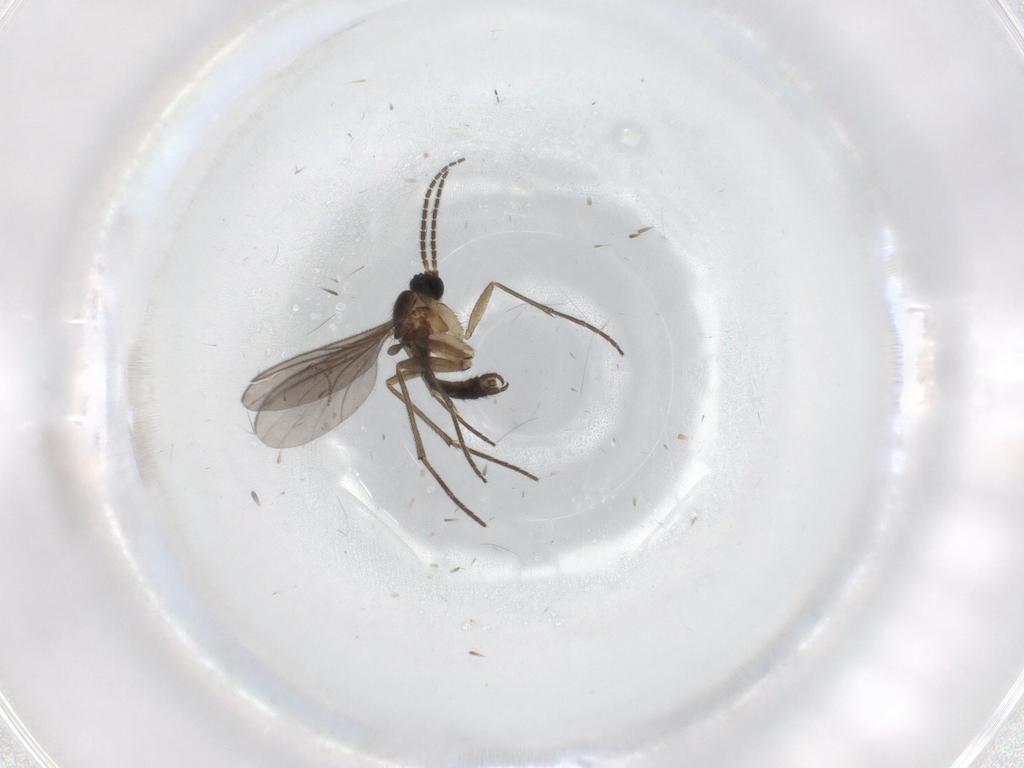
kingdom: Animalia
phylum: Arthropoda
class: Insecta
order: Diptera
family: Sciaridae
